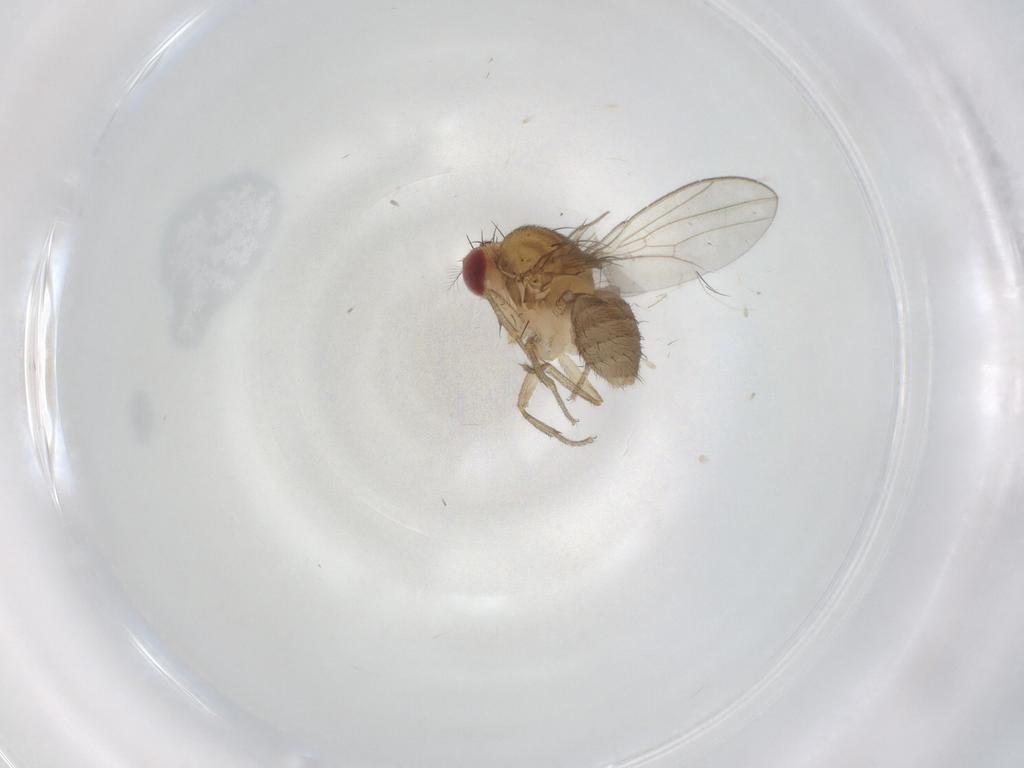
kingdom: Animalia
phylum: Arthropoda
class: Insecta
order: Diptera
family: Drosophilidae
